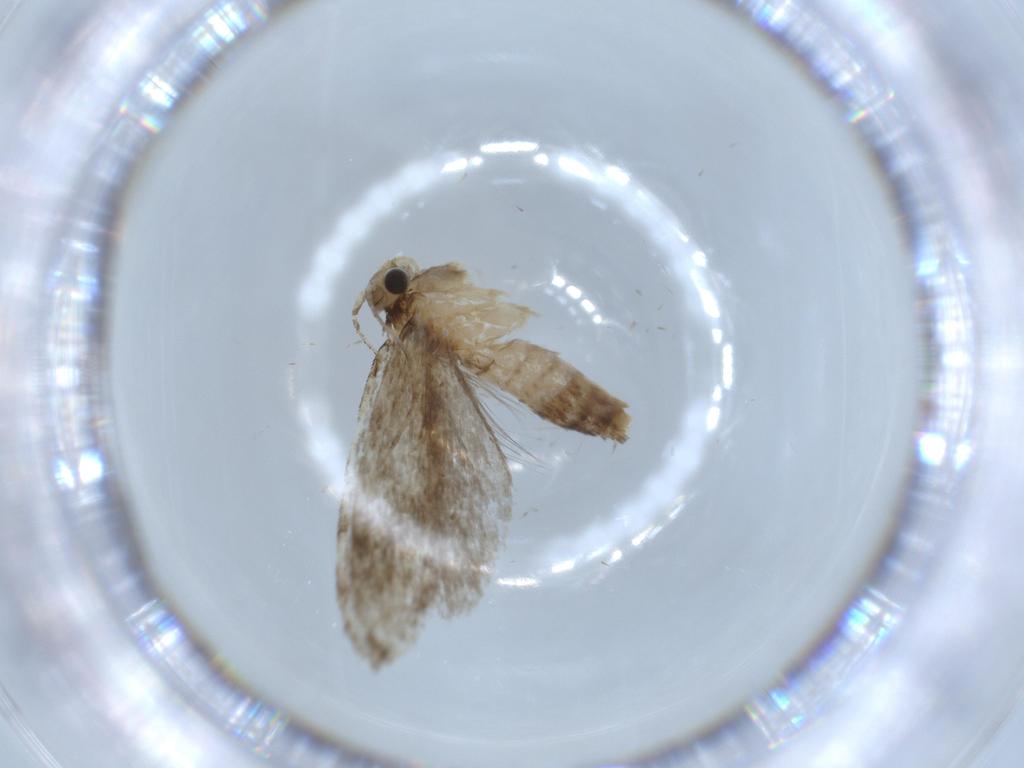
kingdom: Animalia
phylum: Arthropoda
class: Insecta
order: Lepidoptera
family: Tineidae
